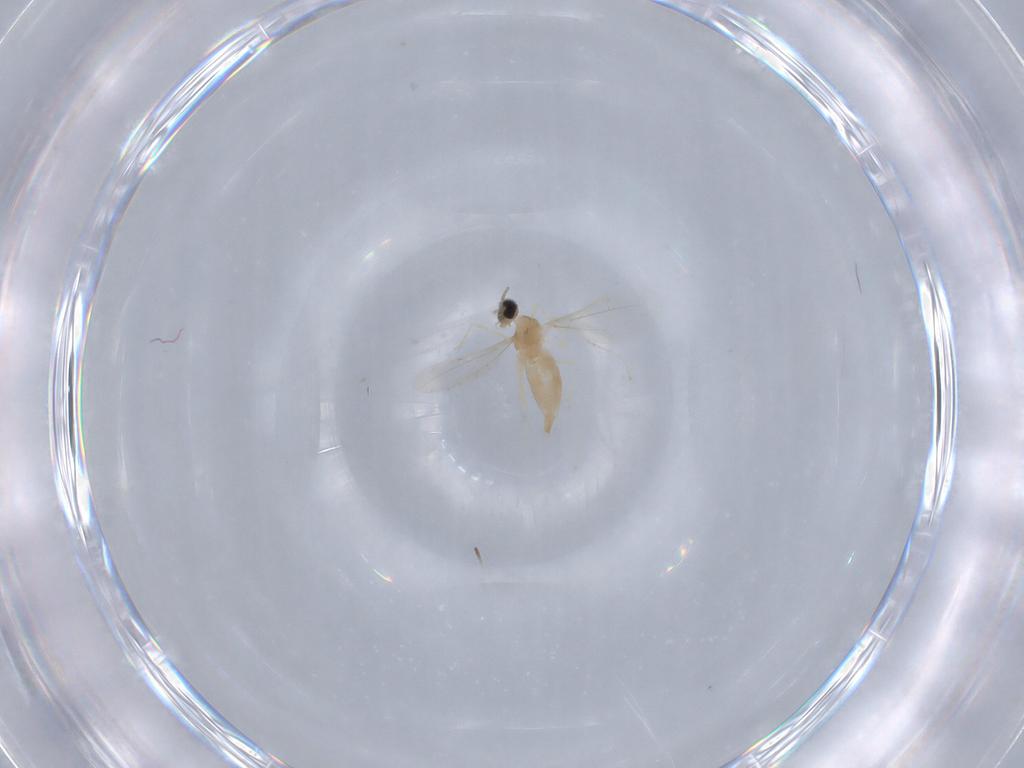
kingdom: Animalia
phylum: Arthropoda
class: Insecta
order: Diptera
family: Cecidomyiidae
